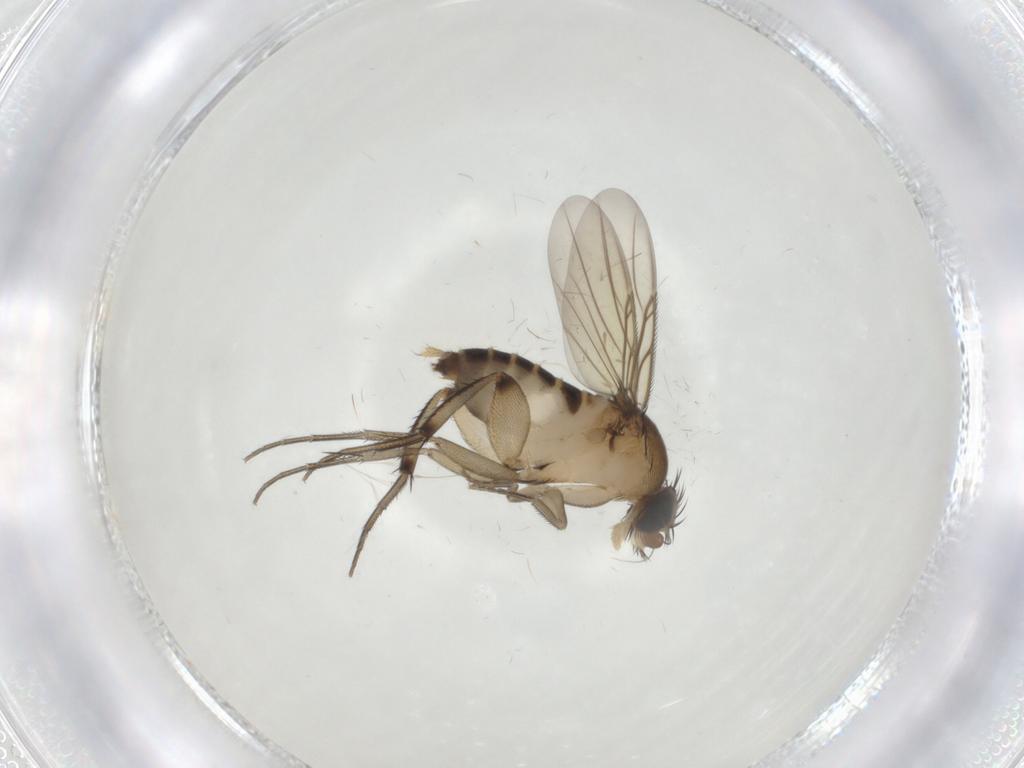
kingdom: Animalia
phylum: Arthropoda
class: Insecta
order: Diptera
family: Phoridae
